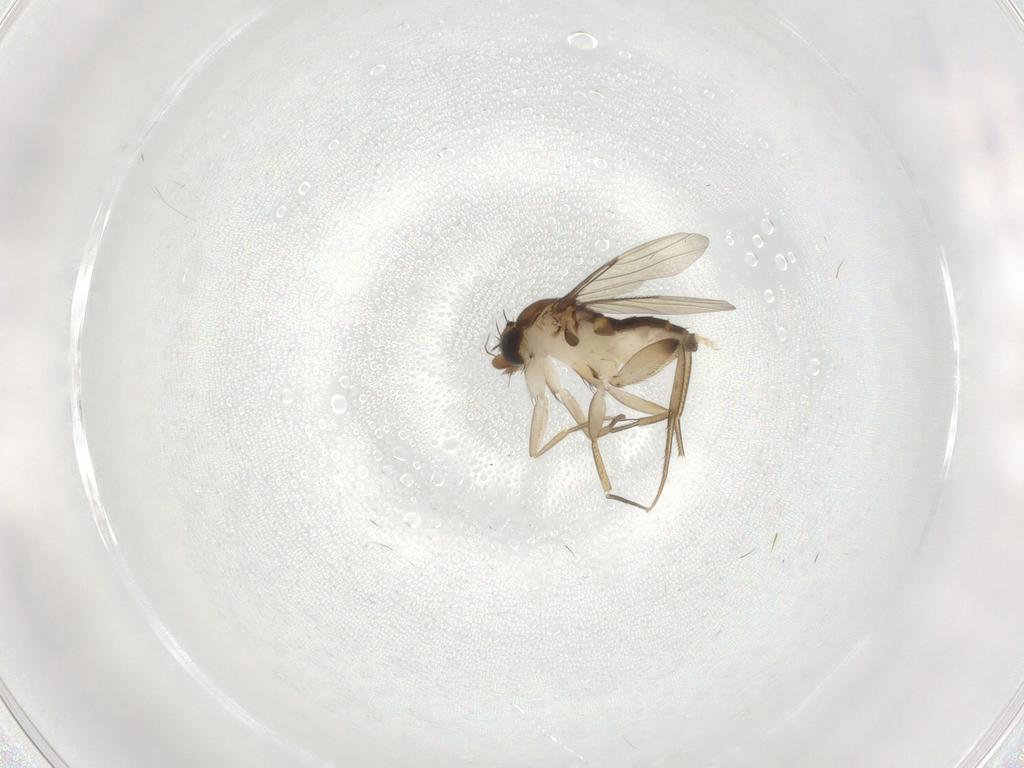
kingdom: Animalia
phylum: Arthropoda
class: Insecta
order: Diptera
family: Phoridae
